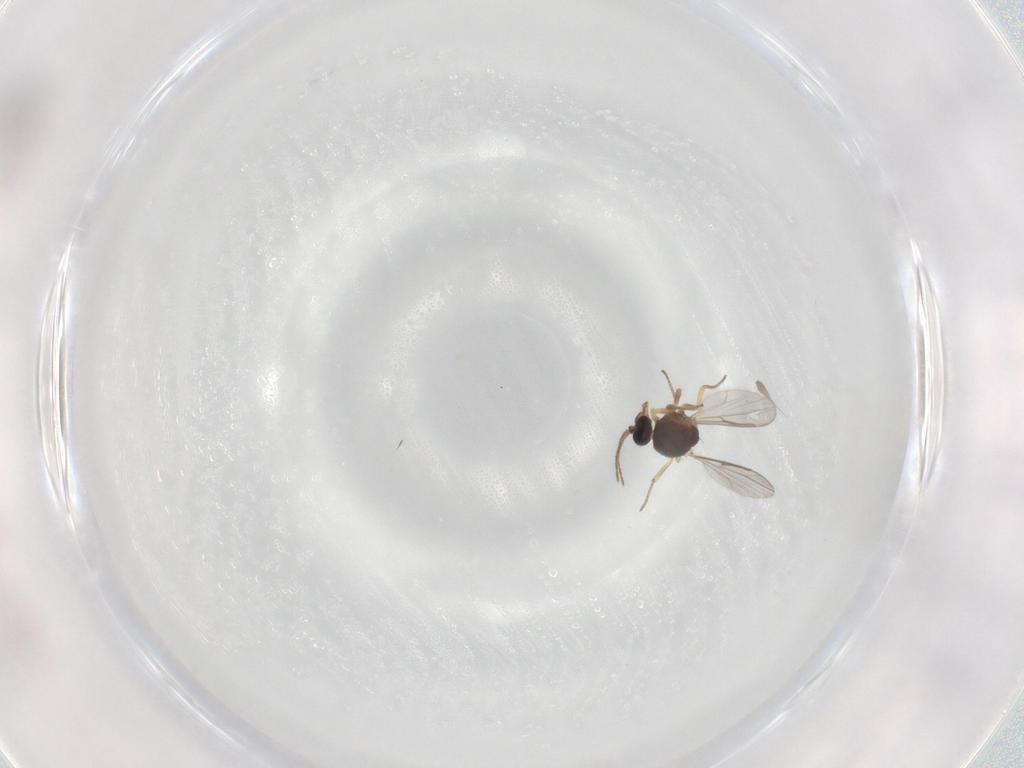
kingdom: Animalia
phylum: Arthropoda
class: Insecta
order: Diptera
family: Ceratopogonidae
